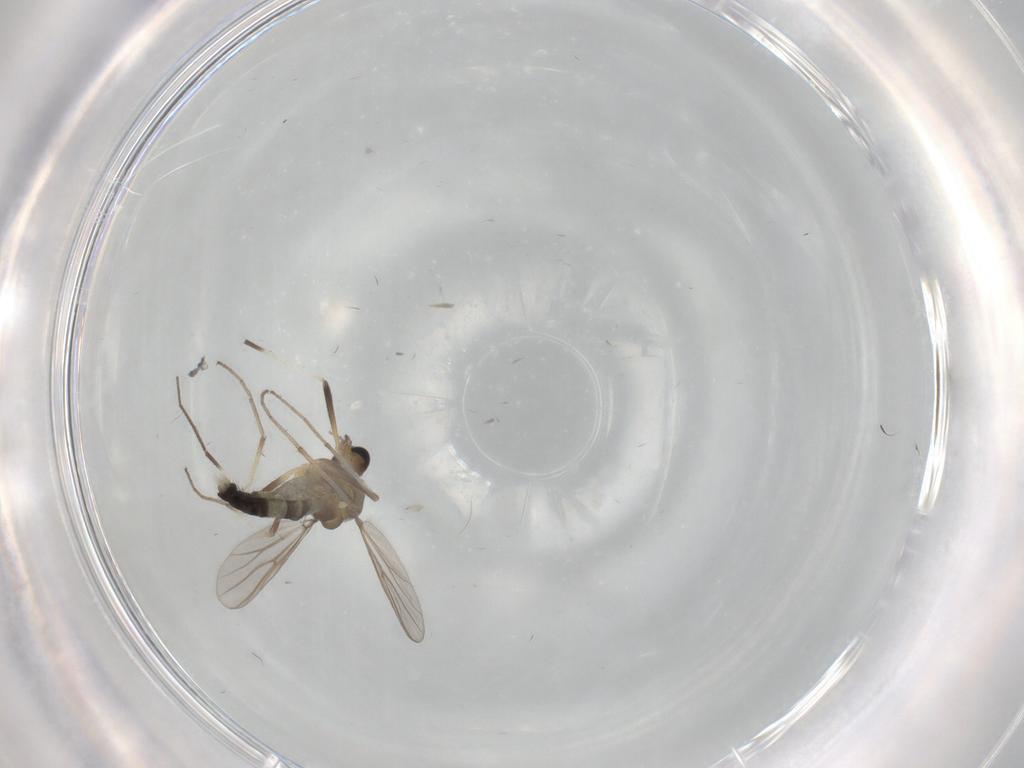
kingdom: Animalia
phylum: Arthropoda
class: Insecta
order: Diptera
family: Chironomidae
